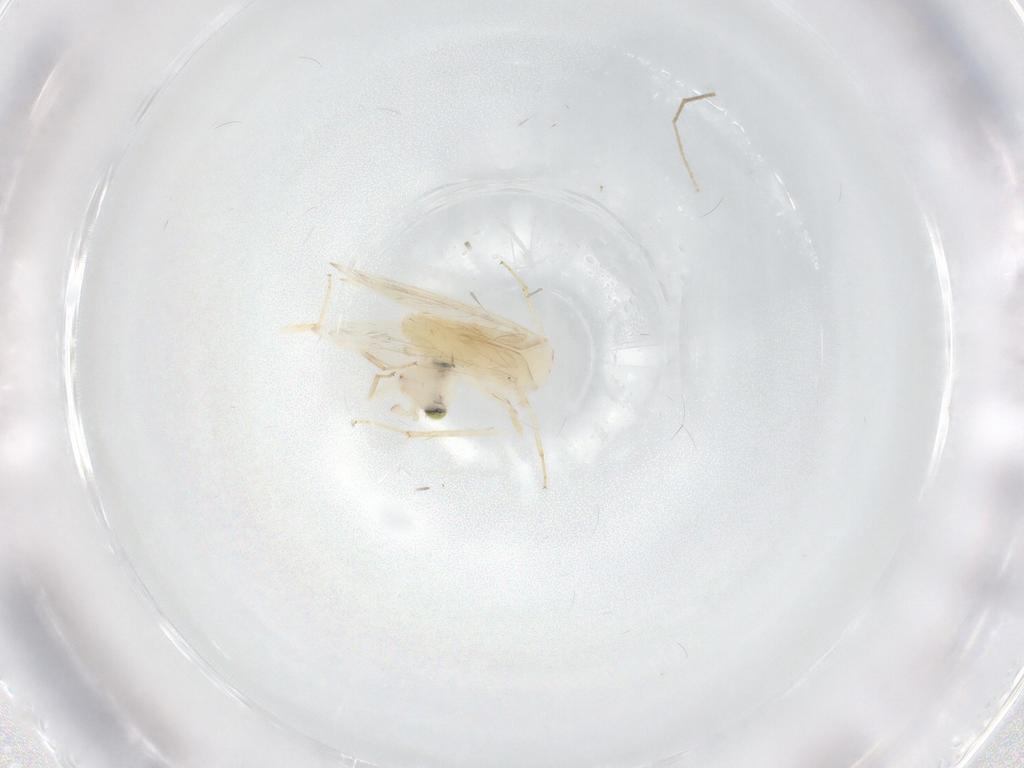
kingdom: Animalia
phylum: Arthropoda
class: Insecta
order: Psocodea
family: Lepidopsocidae
